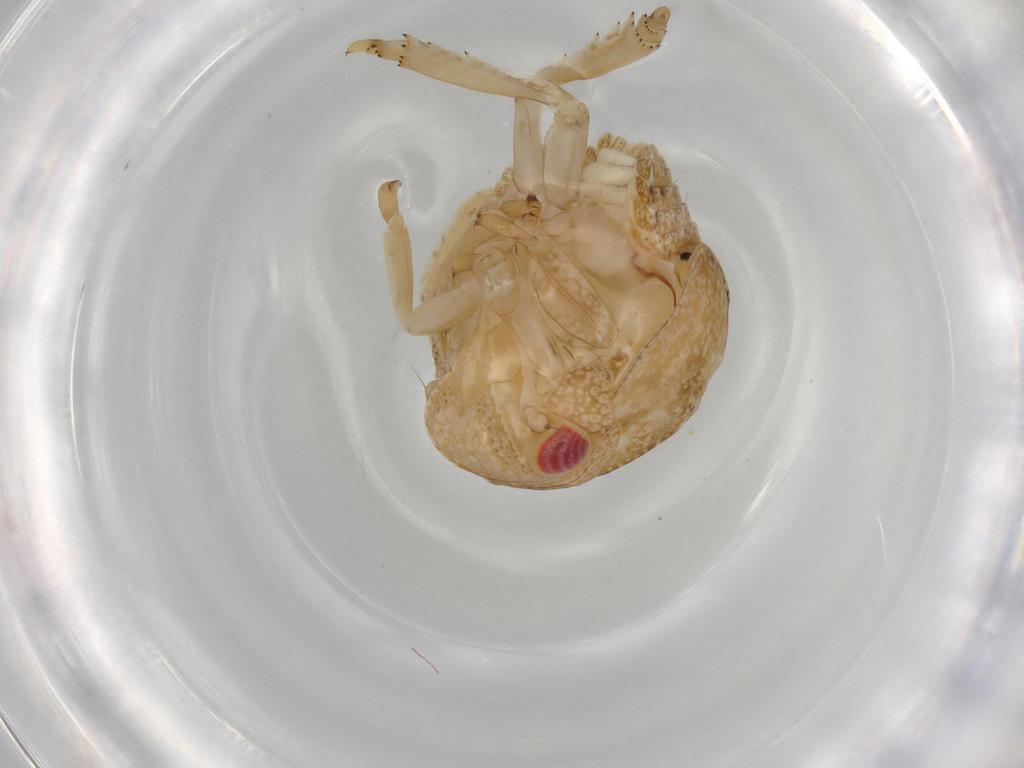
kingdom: Animalia
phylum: Arthropoda
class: Insecta
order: Hemiptera
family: Acanaloniidae
